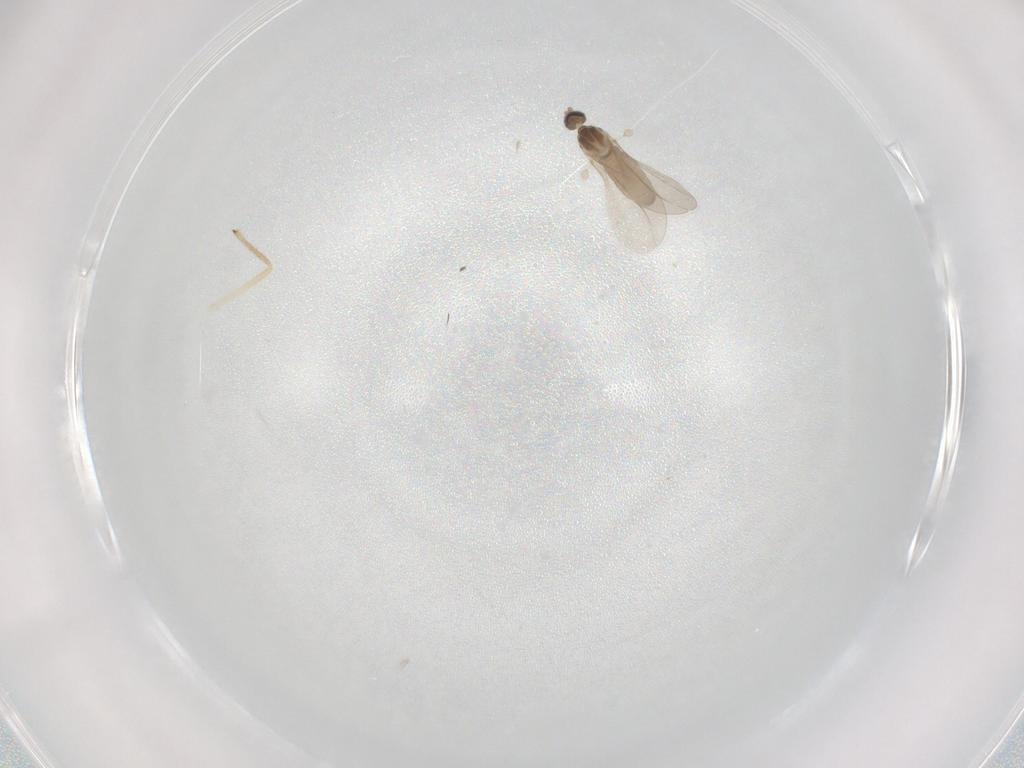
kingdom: Animalia
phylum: Arthropoda
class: Insecta
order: Diptera
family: Cecidomyiidae
